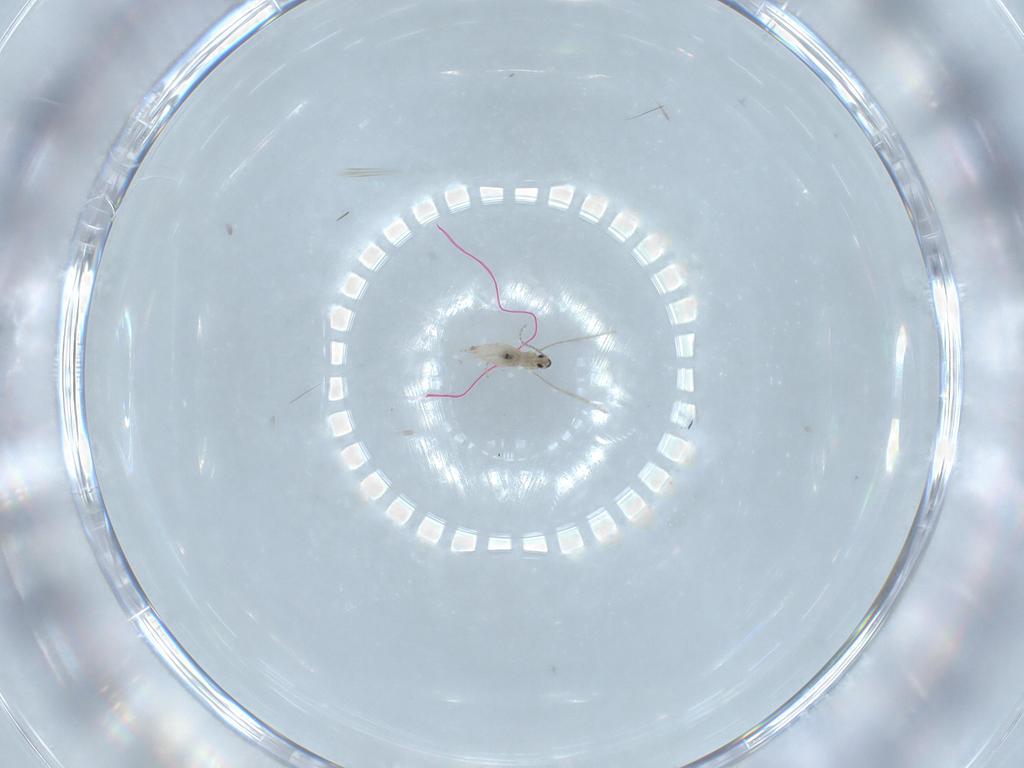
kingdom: Animalia
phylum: Arthropoda
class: Insecta
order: Diptera
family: Cecidomyiidae
